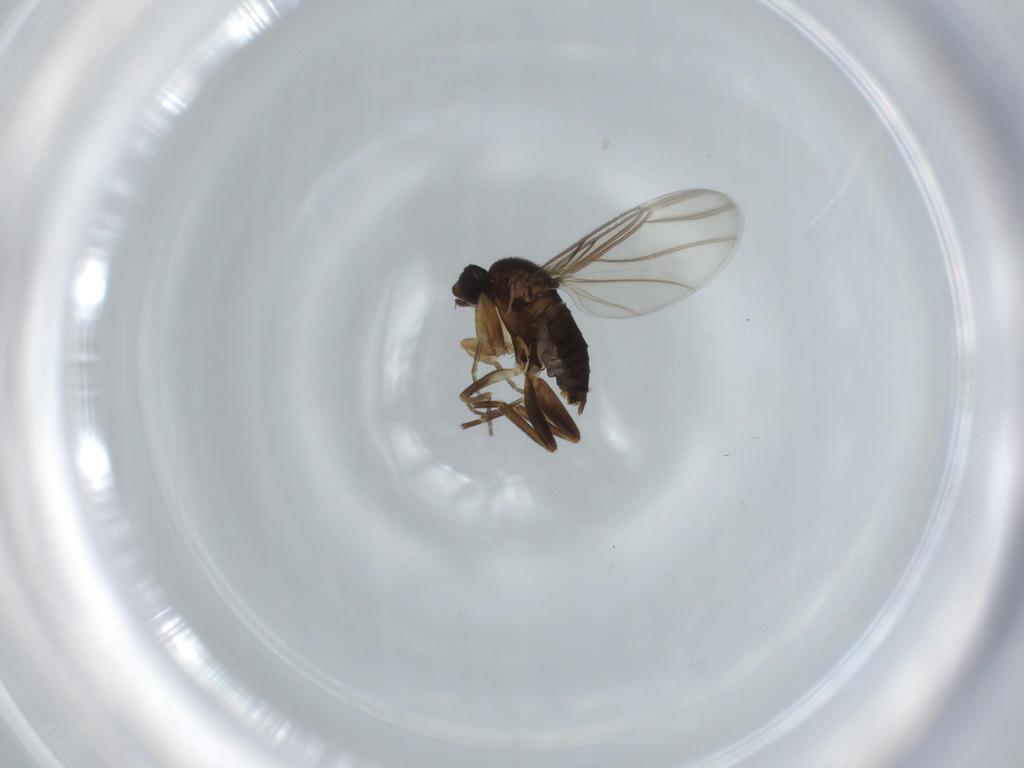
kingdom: Animalia
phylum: Arthropoda
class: Insecta
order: Diptera
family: Phoridae
